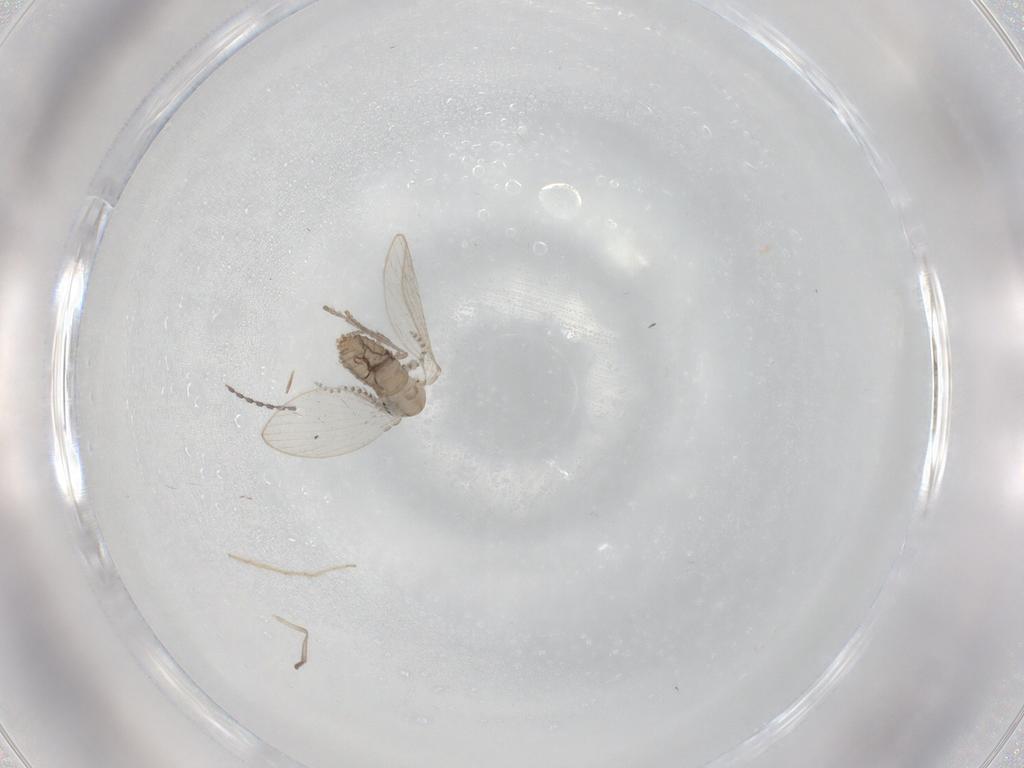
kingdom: Animalia
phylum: Arthropoda
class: Insecta
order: Diptera
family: Psychodidae
